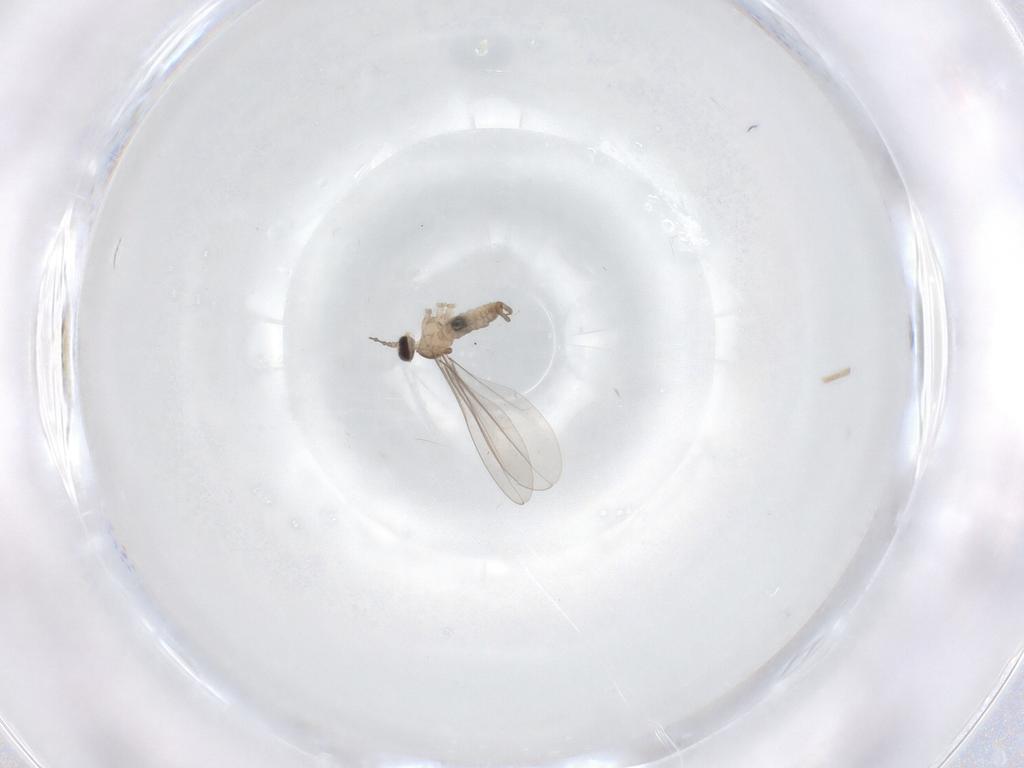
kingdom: Animalia
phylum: Arthropoda
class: Insecta
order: Diptera
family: Cecidomyiidae
